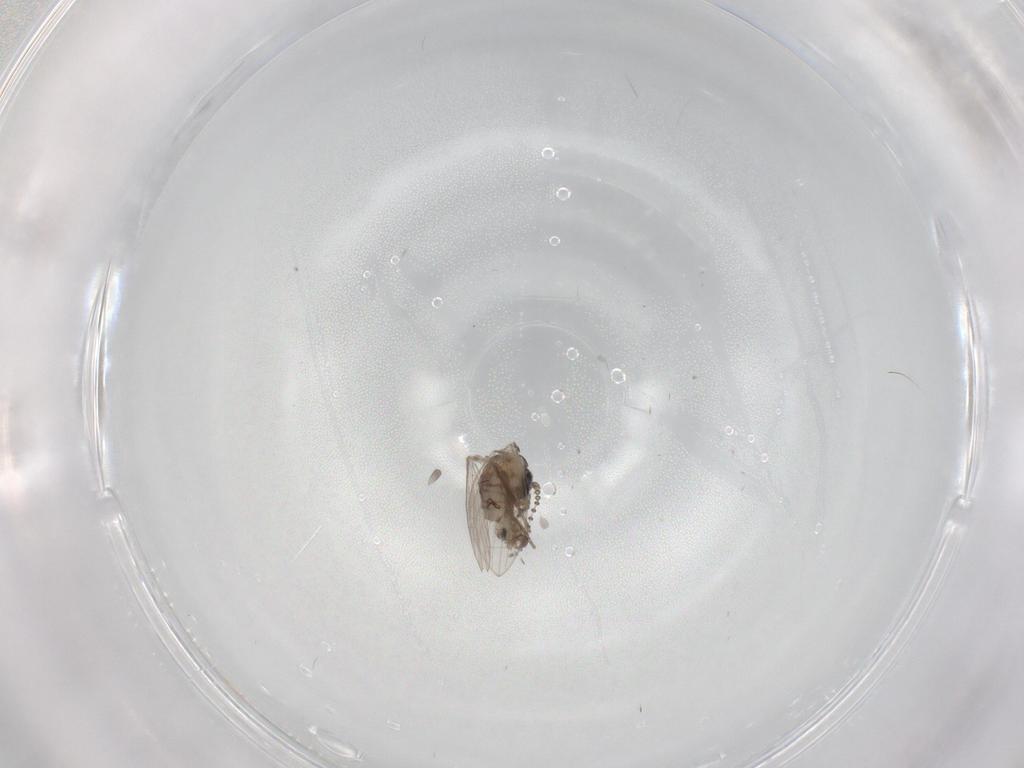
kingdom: Animalia
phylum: Arthropoda
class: Insecta
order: Diptera
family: Psychodidae
